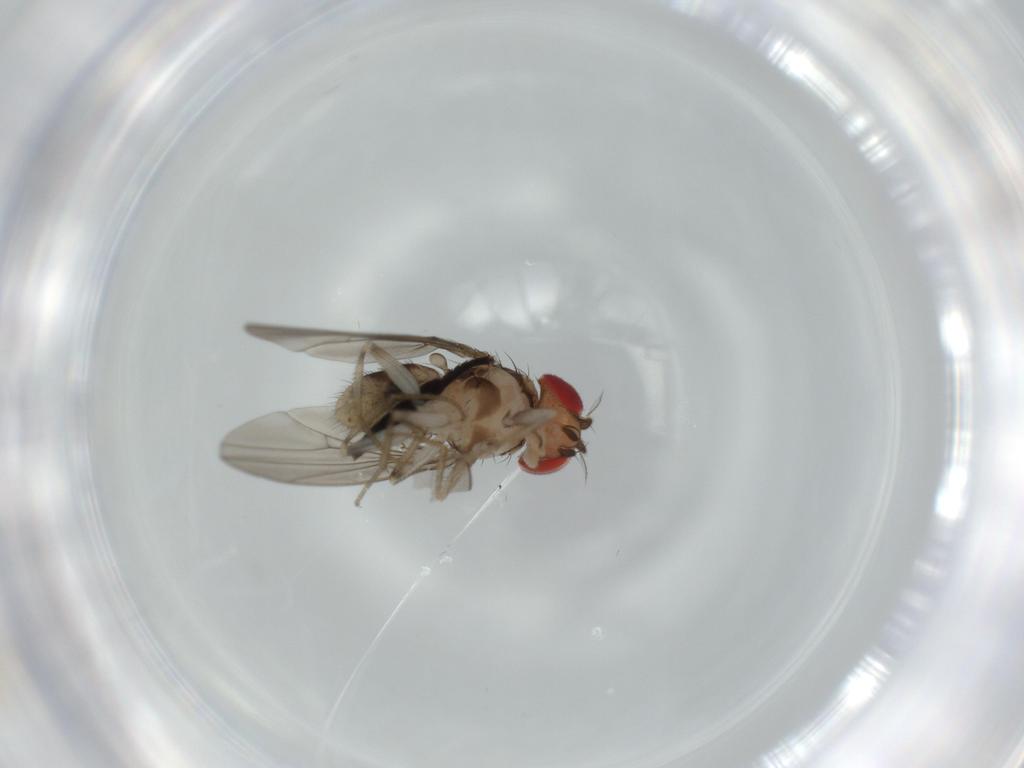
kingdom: Animalia
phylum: Arthropoda
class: Insecta
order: Diptera
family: Drosophilidae
